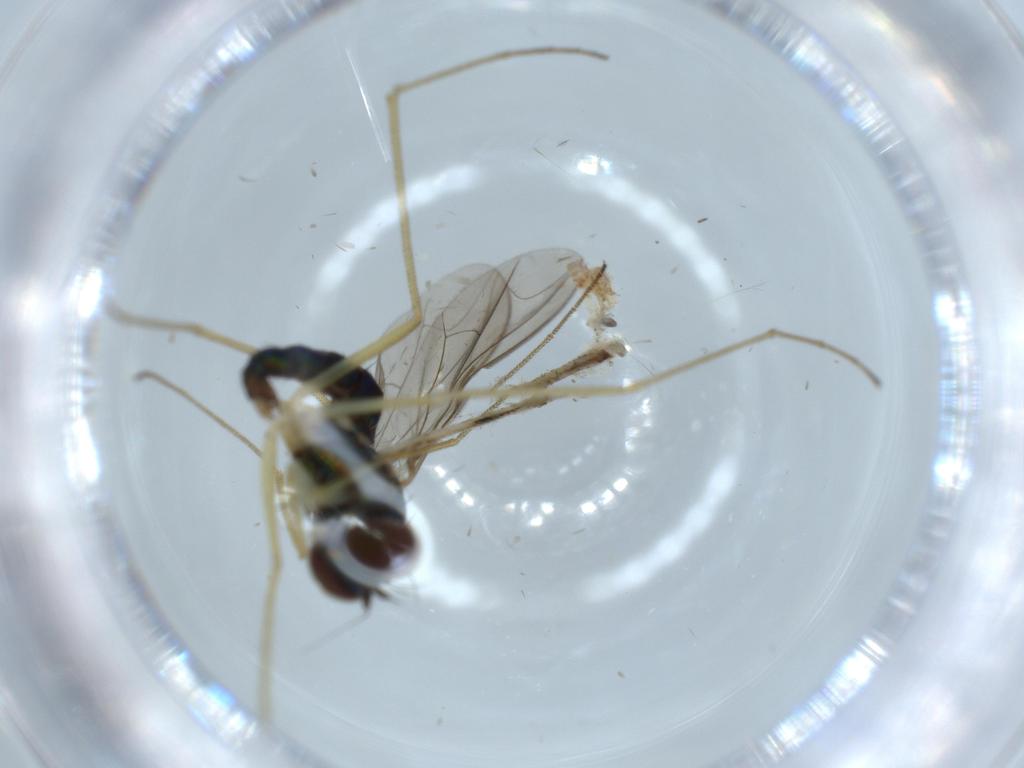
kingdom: Animalia
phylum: Arthropoda
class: Insecta
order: Diptera
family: Dolichopodidae
